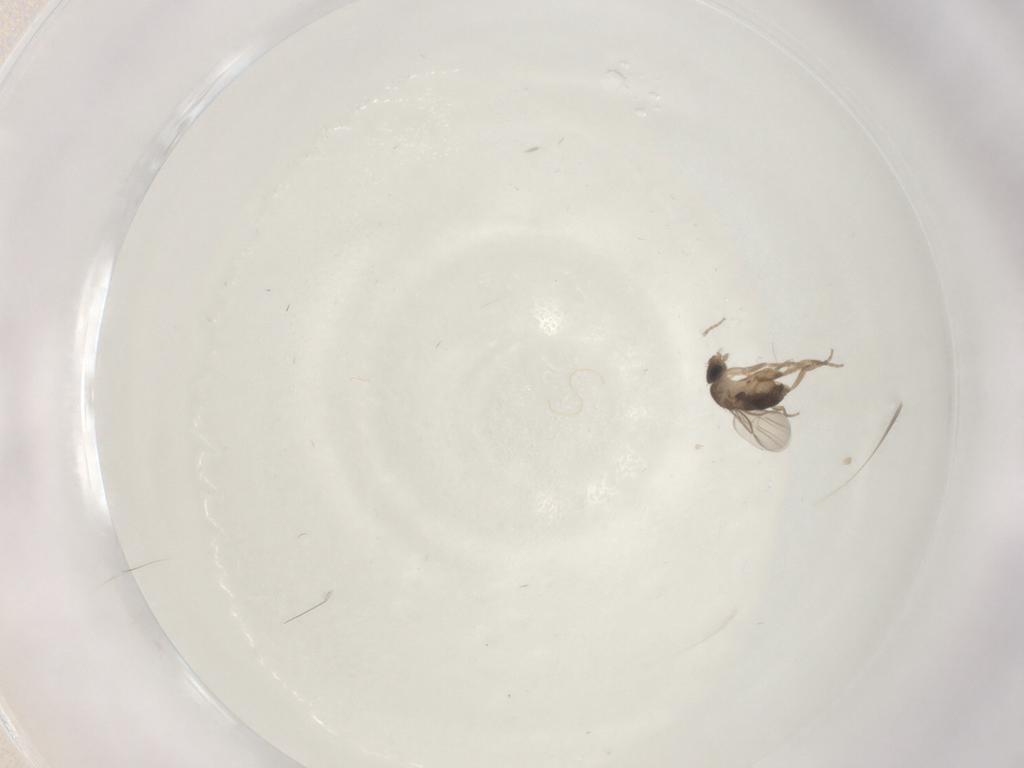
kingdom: Animalia
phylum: Arthropoda
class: Insecta
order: Diptera
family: Phoridae
